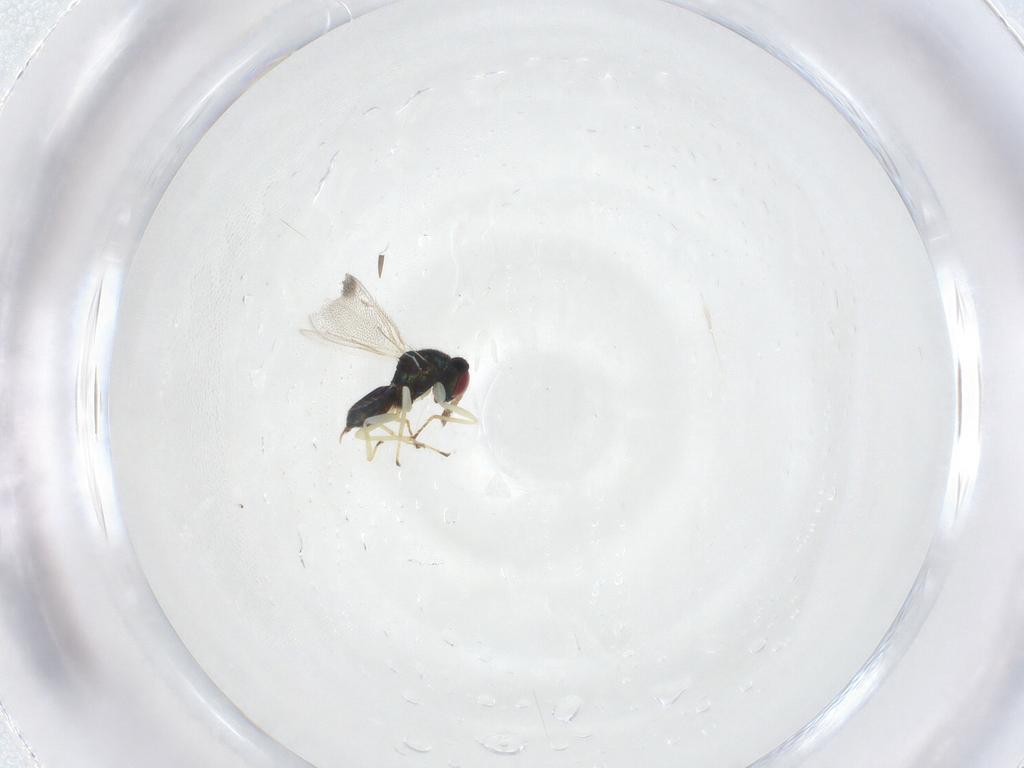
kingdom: Animalia
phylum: Arthropoda
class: Insecta
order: Hymenoptera
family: Eulophidae
